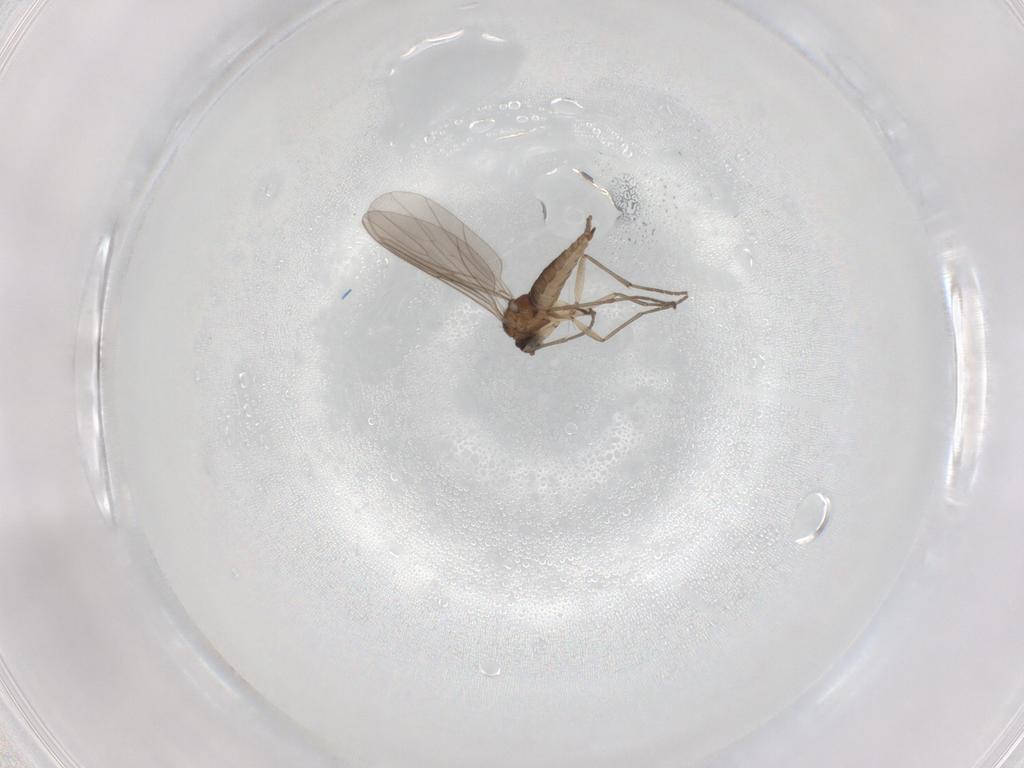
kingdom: Animalia
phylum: Arthropoda
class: Insecta
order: Diptera
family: Sciaridae
